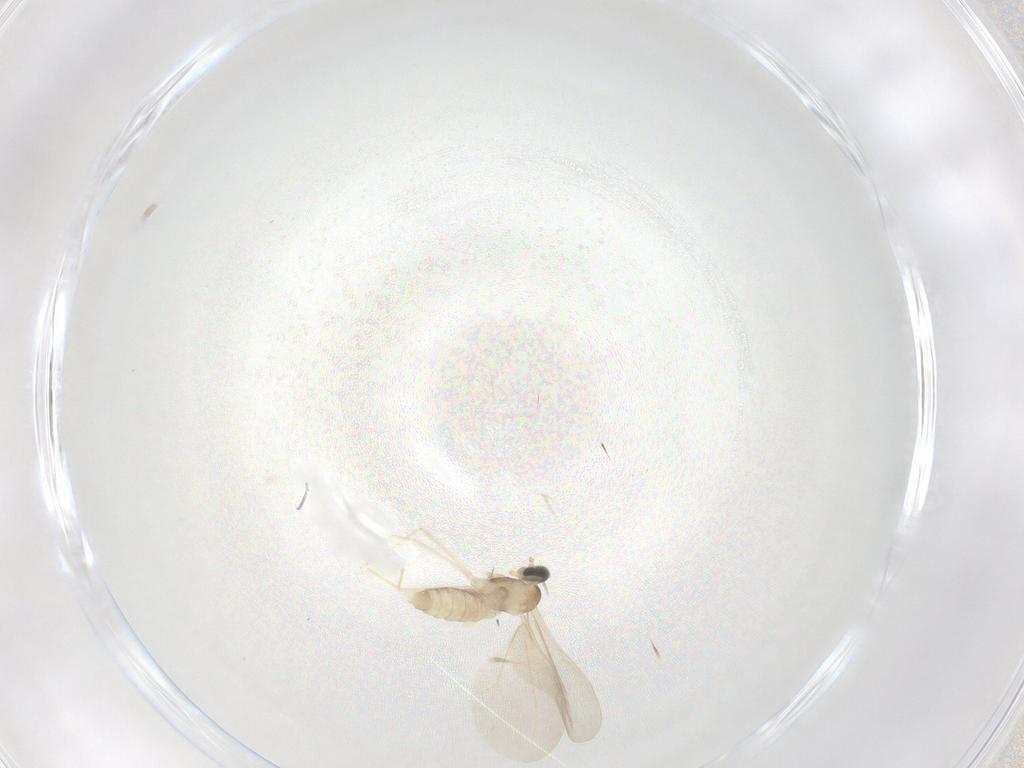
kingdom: Animalia
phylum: Arthropoda
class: Insecta
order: Diptera
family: Cecidomyiidae
